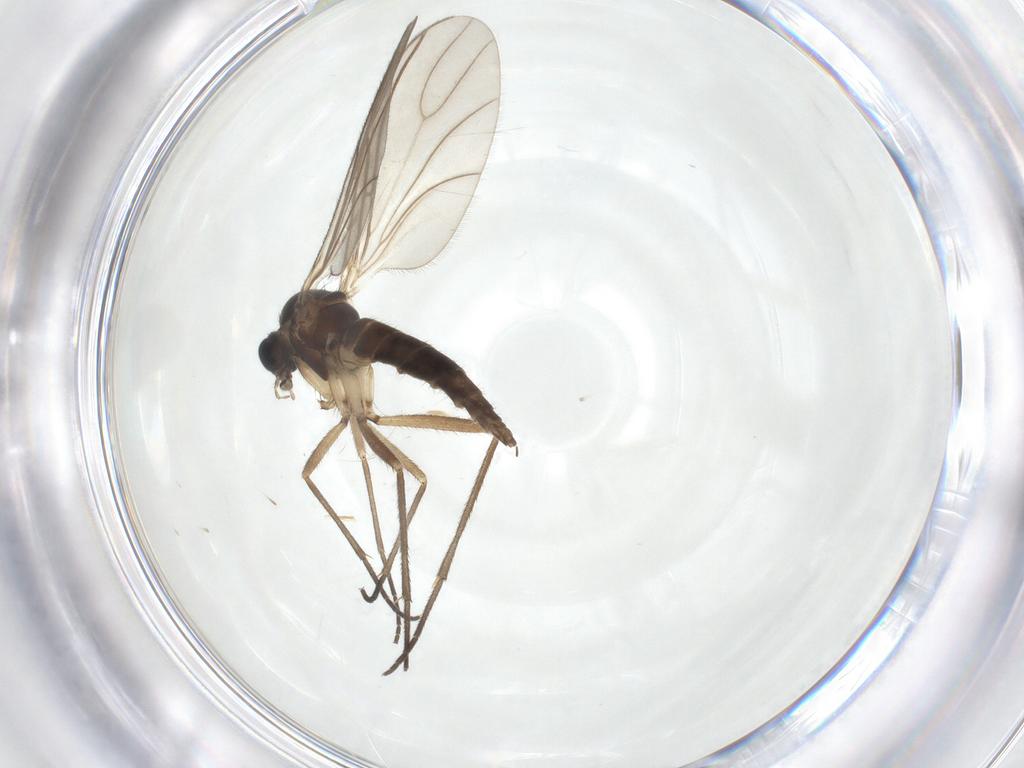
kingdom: Animalia
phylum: Arthropoda
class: Insecta
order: Diptera
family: Sciaridae
